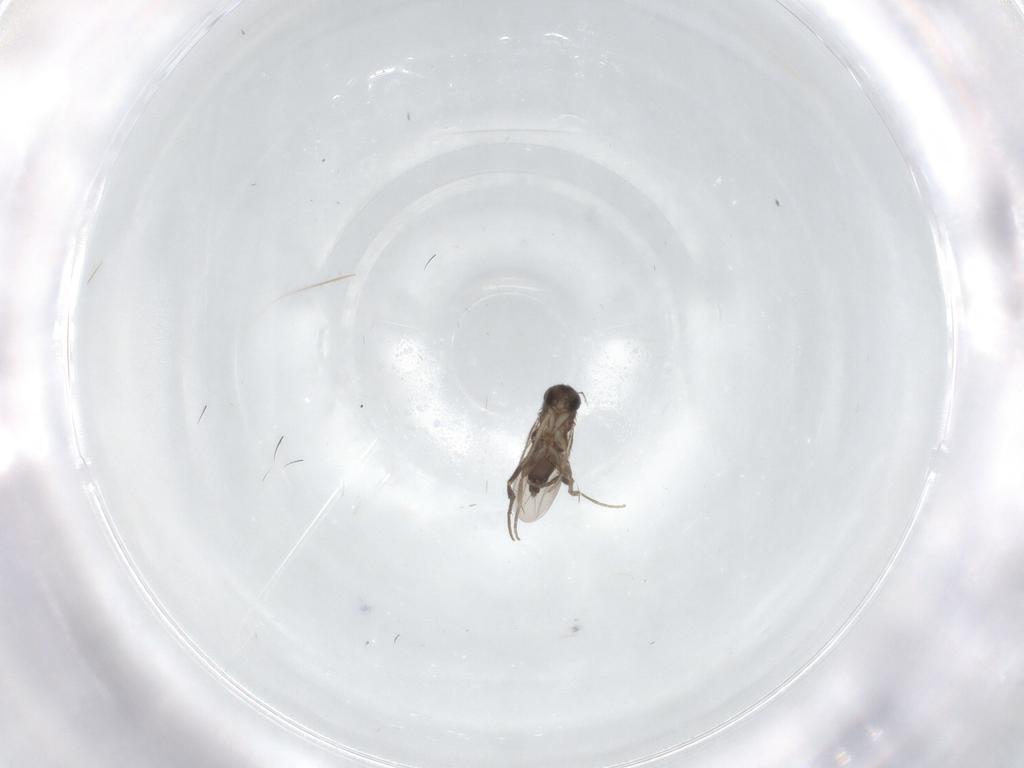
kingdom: Animalia
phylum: Arthropoda
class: Insecta
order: Diptera
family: Phoridae
